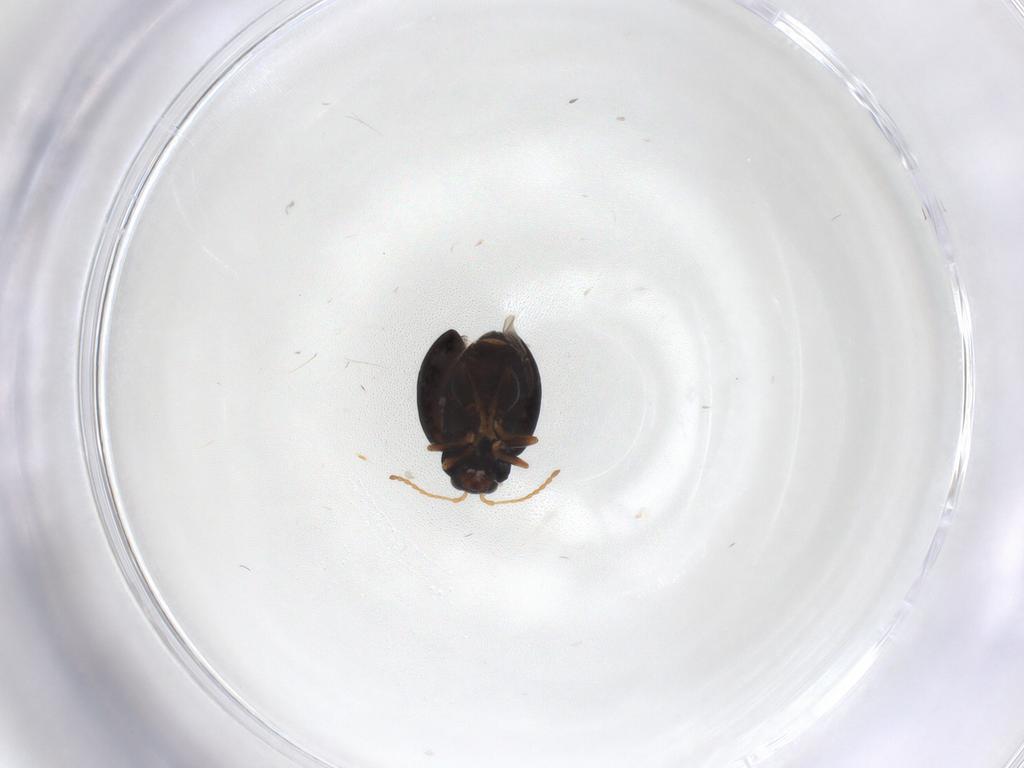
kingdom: Animalia
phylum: Arthropoda
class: Insecta
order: Coleoptera
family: Chrysomelidae
